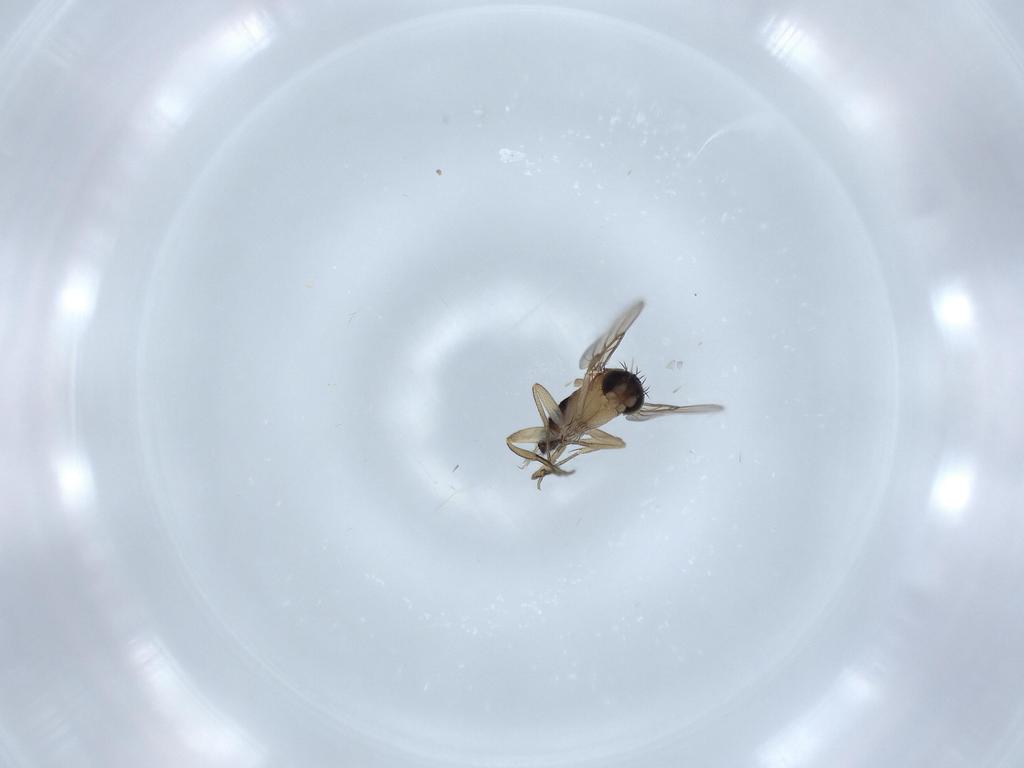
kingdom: Animalia
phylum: Arthropoda
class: Insecta
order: Diptera
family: Phoridae
